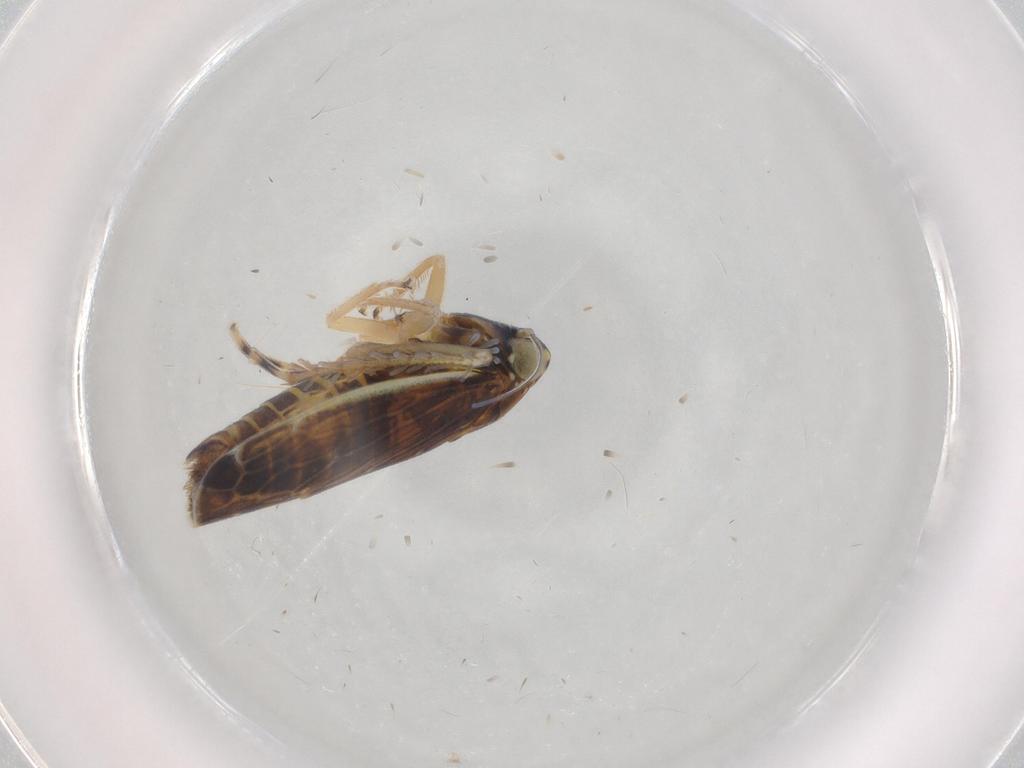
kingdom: Animalia
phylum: Arthropoda
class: Insecta
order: Hemiptera
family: Cicadellidae
